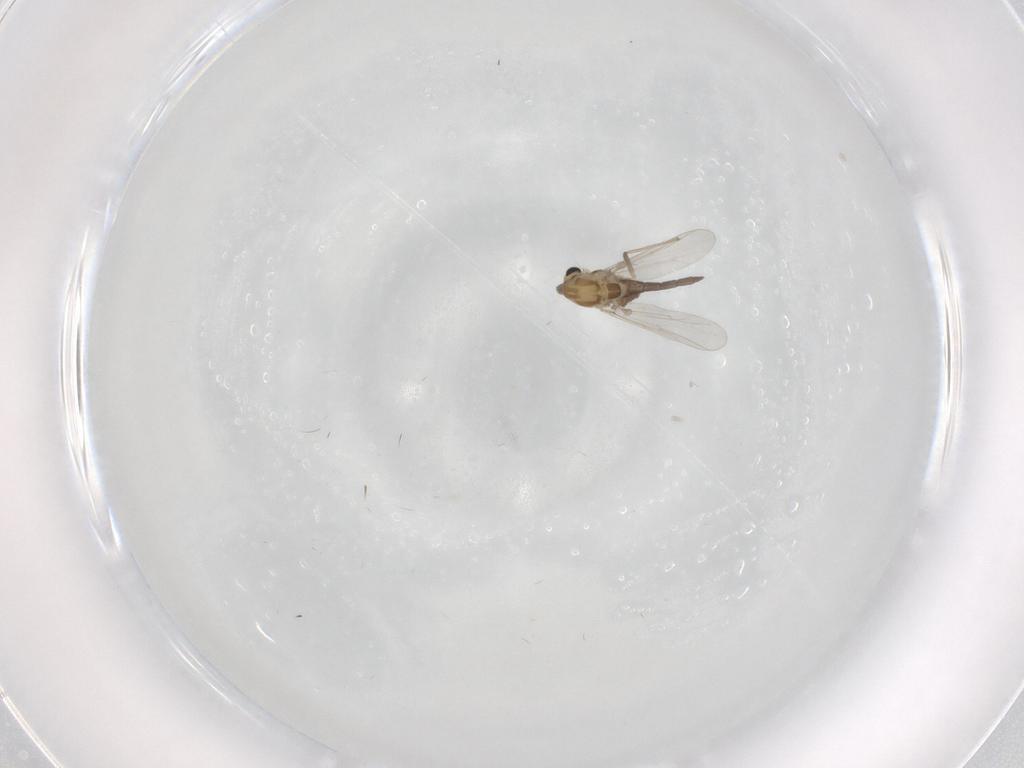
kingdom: Animalia
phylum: Arthropoda
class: Insecta
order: Diptera
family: Chironomidae
